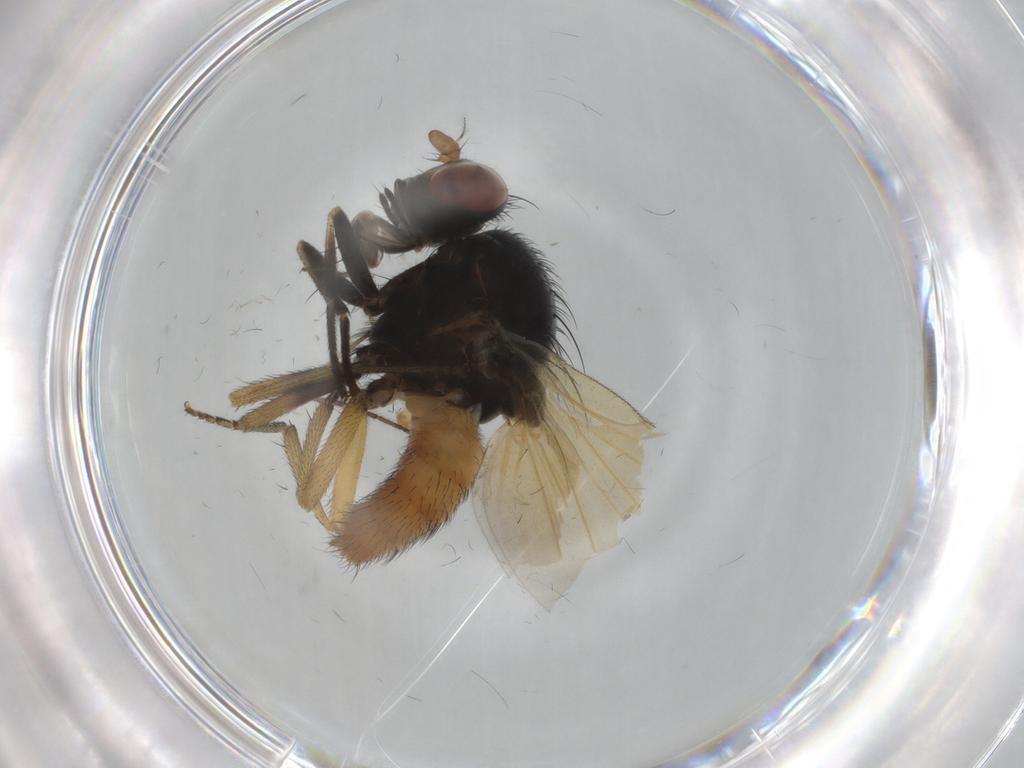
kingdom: Animalia
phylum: Arthropoda
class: Insecta
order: Diptera
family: Chironomidae
